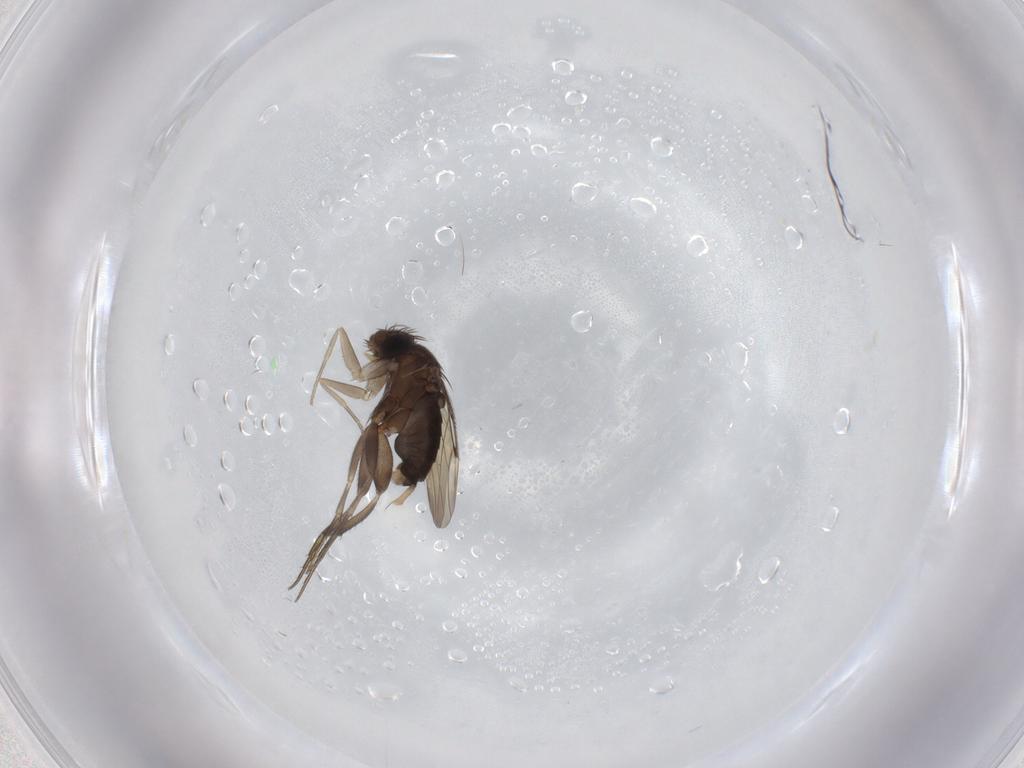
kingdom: Animalia
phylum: Arthropoda
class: Insecta
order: Diptera
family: Phoridae
